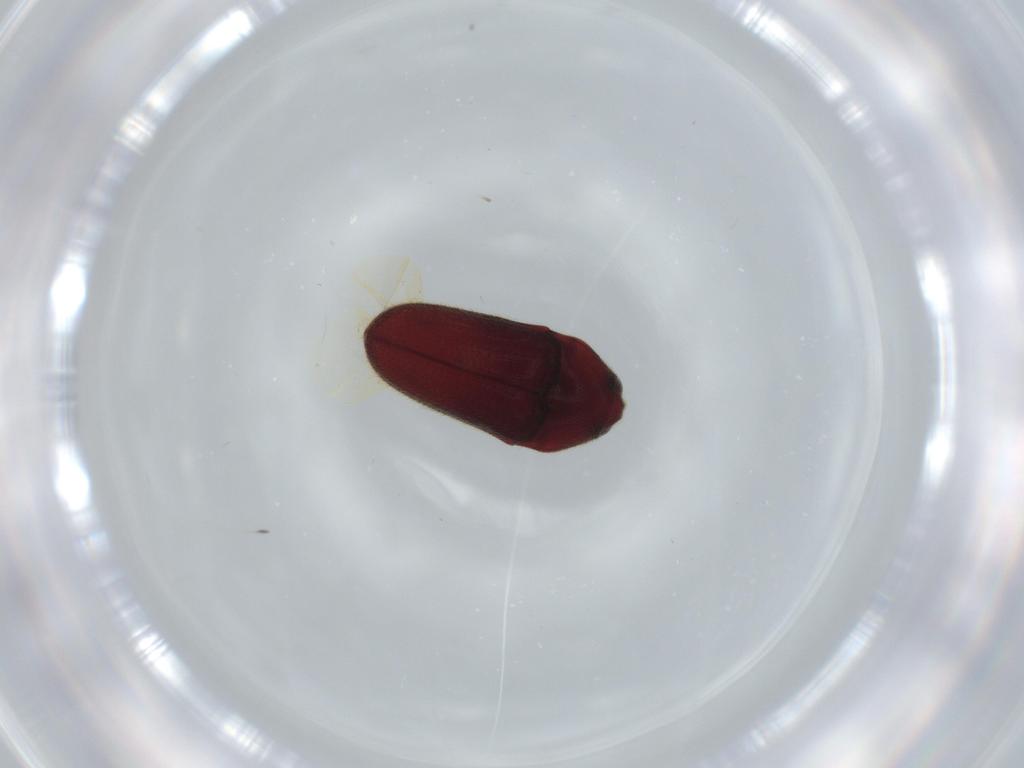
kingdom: Animalia
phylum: Arthropoda
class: Insecta
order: Coleoptera
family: Throscidae
